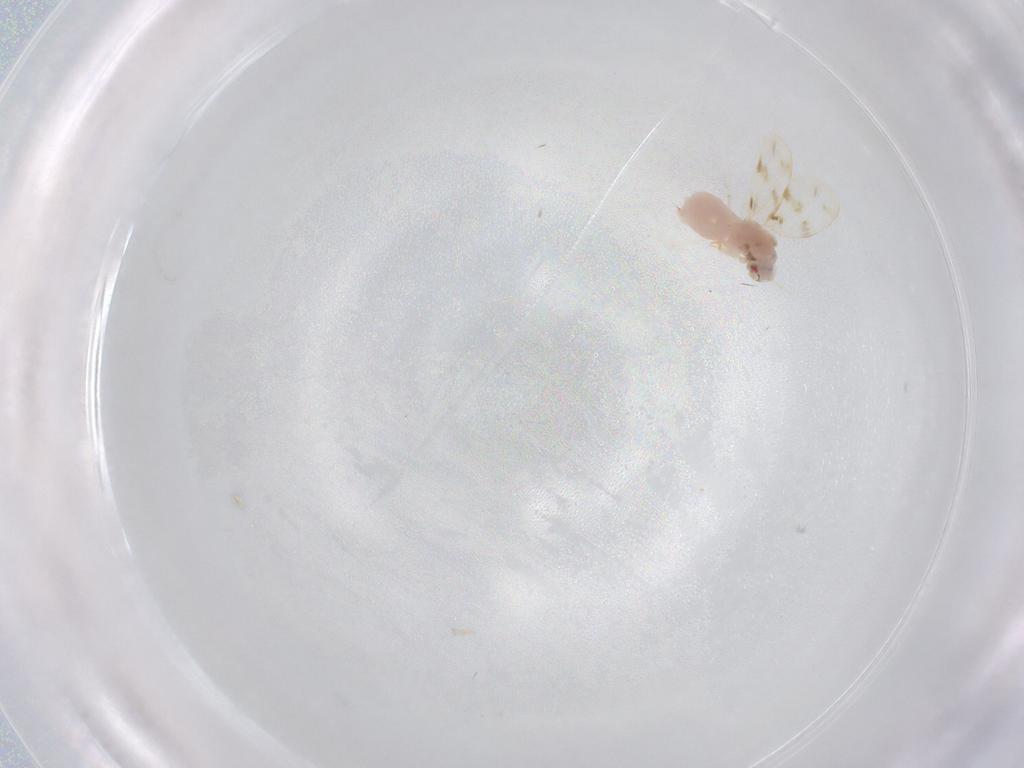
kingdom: Animalia
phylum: Arthropoda
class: Insecta
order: Hemiptera
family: Aleyrodidae
